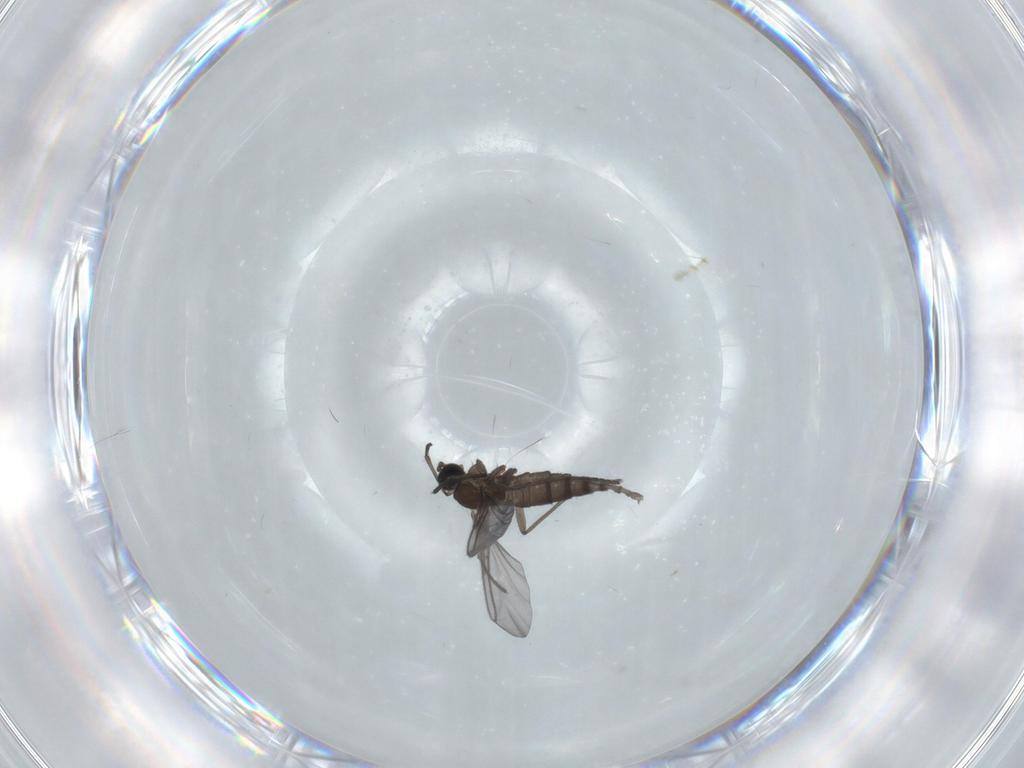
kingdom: Animalia
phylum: Arthropoda
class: Insecta
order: Diptera
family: Chironomidae
